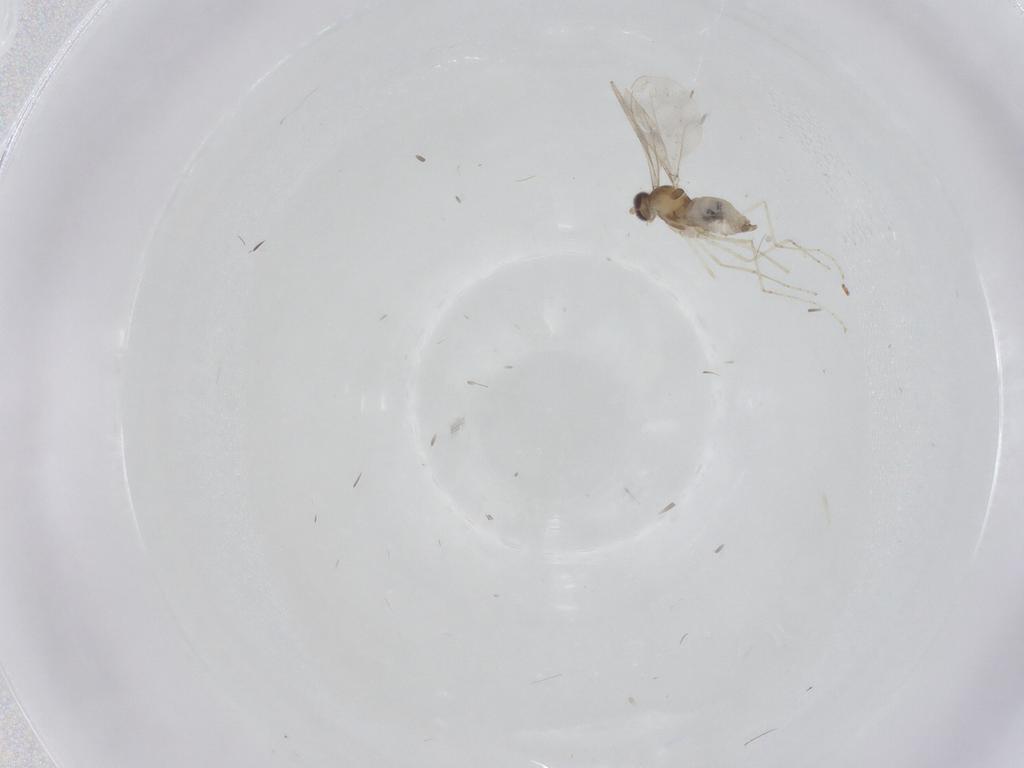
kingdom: Animalia
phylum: Arthropoda
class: Insecta
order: Diptera
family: Cecidomyiidae
